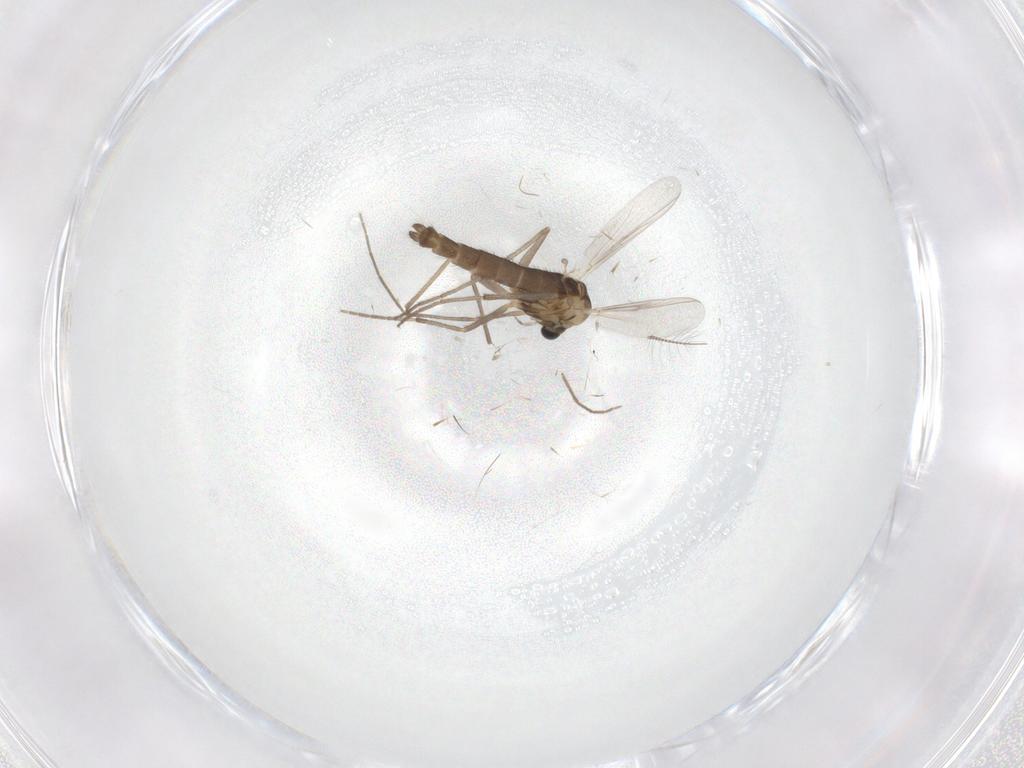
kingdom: Animalia
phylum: Arthropoda
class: Insecta
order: Diptera
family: Chironomidae
